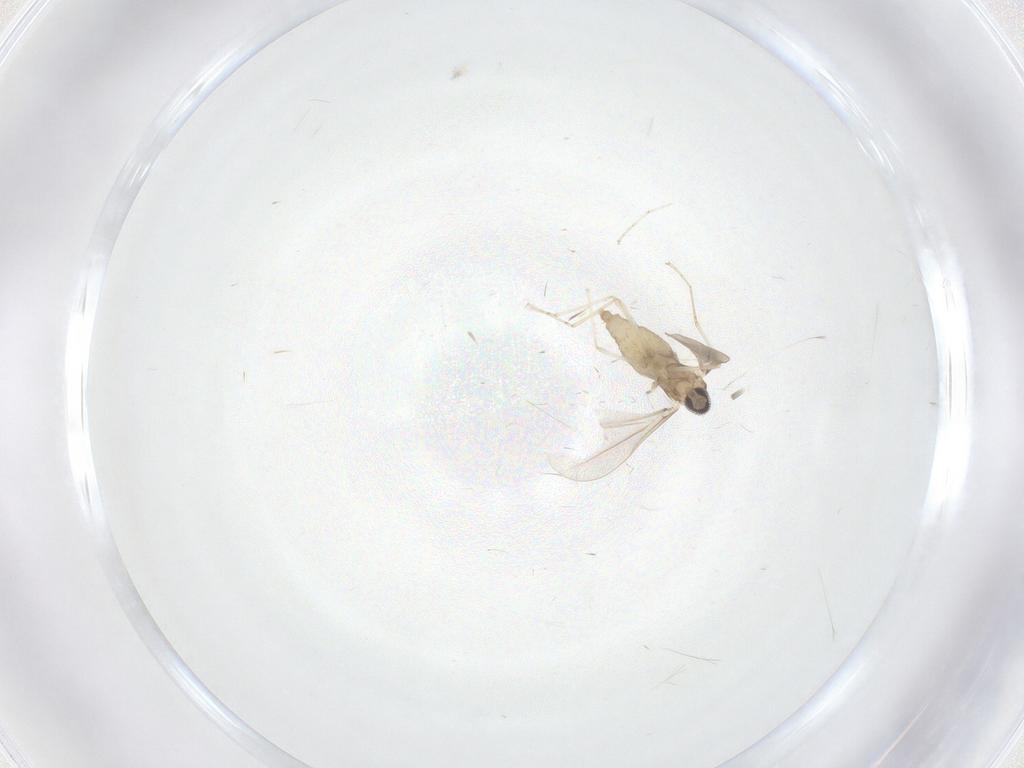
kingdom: Animalia
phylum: Arthropoda
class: Insecta
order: Diptera
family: Cecidomyiidae
